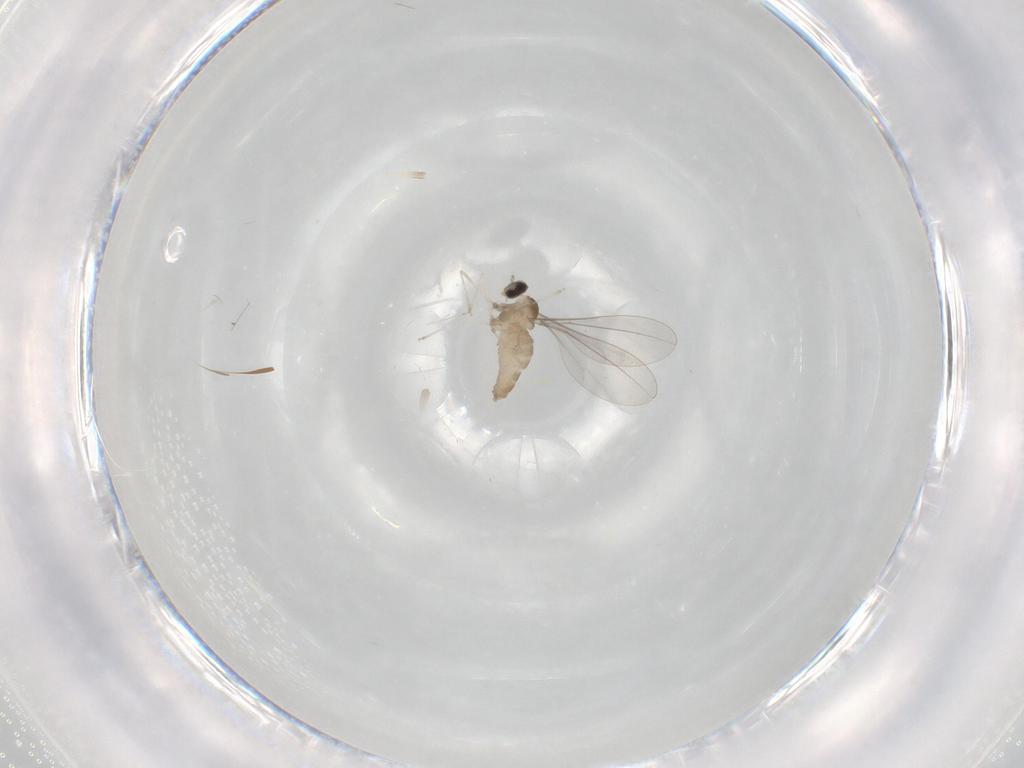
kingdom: Animalia
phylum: Arthropoda
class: Insecta
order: Diptera
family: Cecidomyiidae
